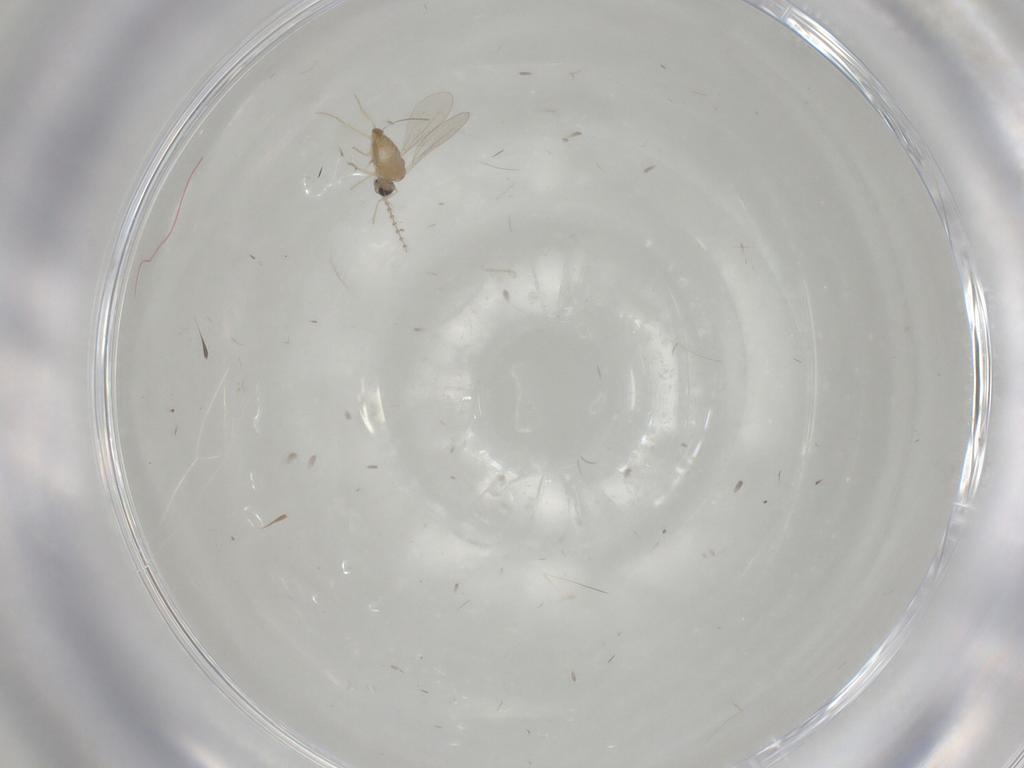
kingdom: Animalia
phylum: Arthropoda
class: Insecta
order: Diptera
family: Cecidomyiidae
